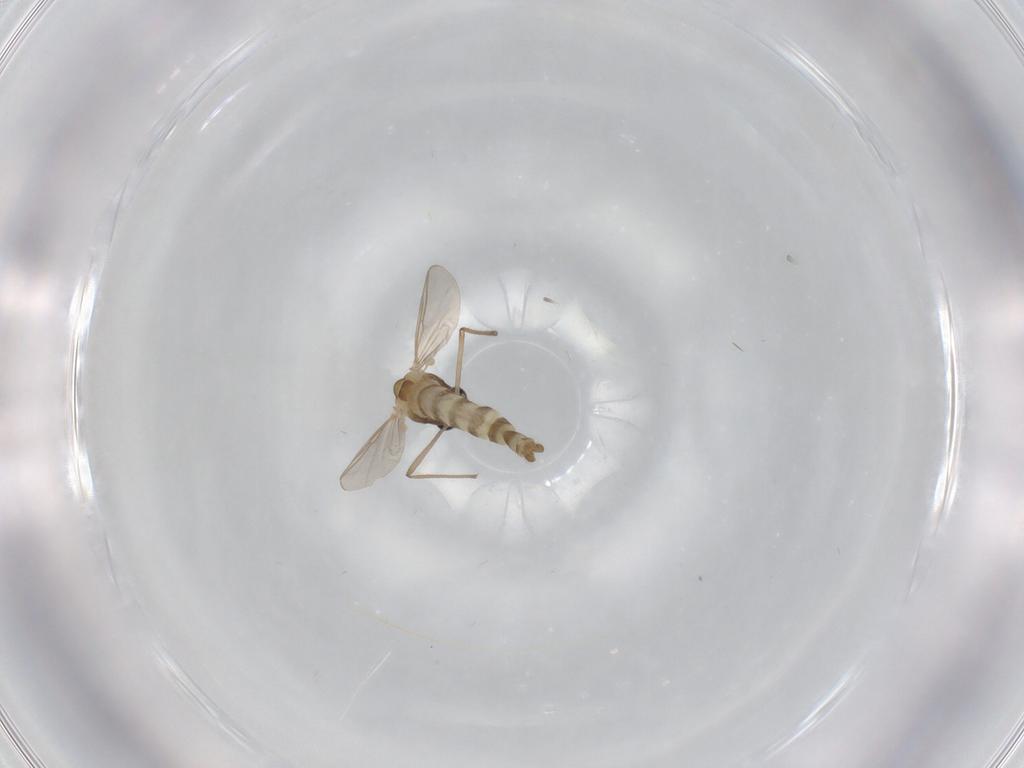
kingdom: Animalia
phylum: Arthropoda
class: Insecta
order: Diptera
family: Chironomidae
